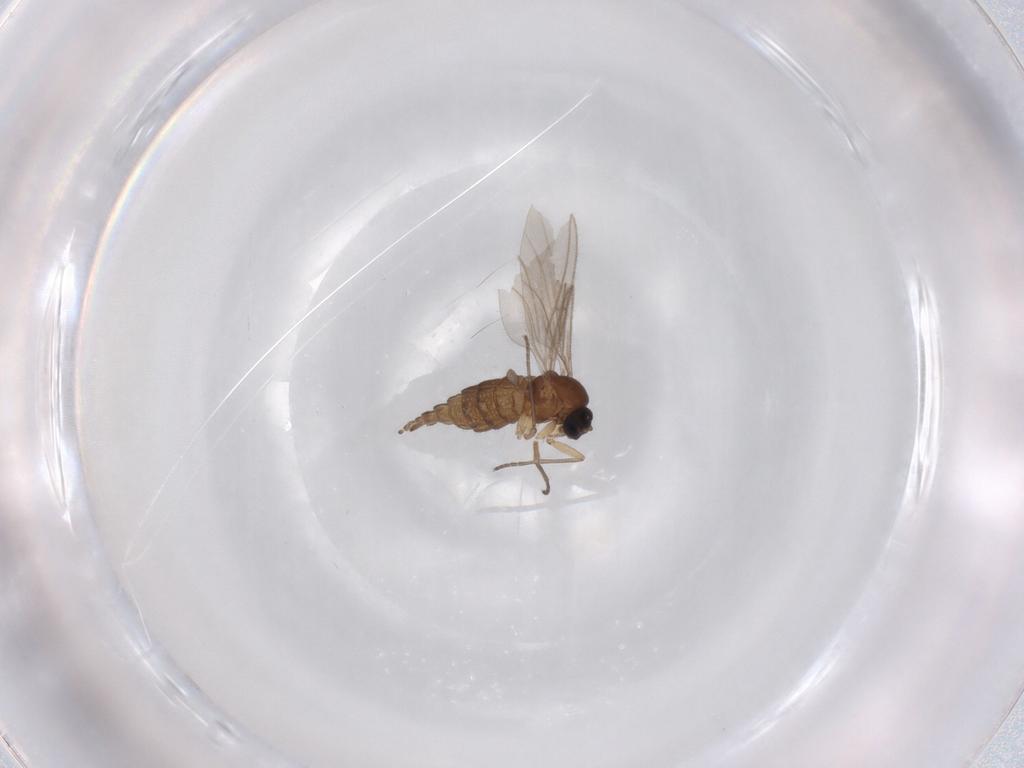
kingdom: Animalia
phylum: Arthropoda
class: Insecta
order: Diptera
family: Sciaridae
